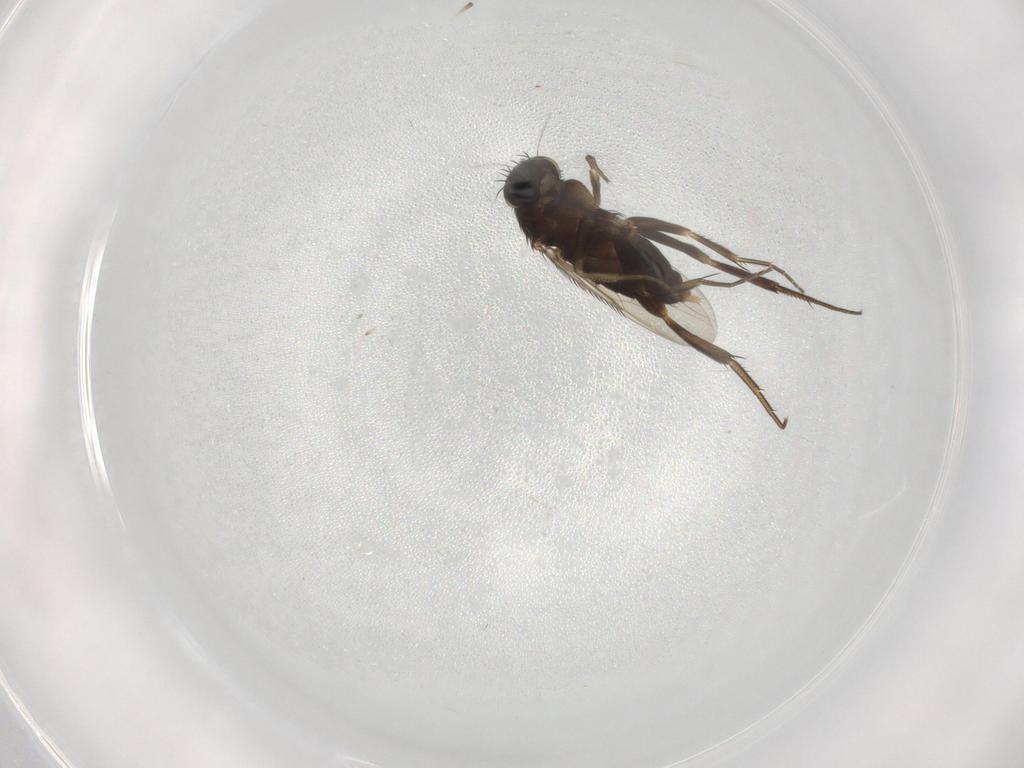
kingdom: Animalia
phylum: Arthropoda
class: Insecta
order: Diptera
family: Cecidomyiidae
